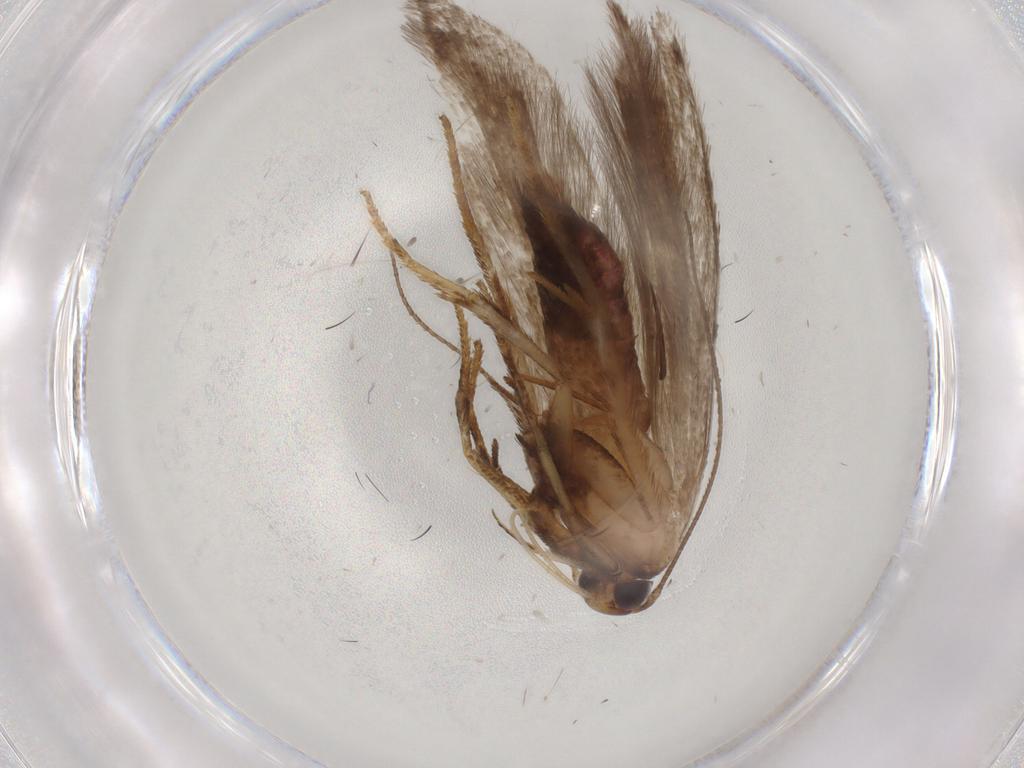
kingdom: Animalia
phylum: Arthropoda
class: Insecta
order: Lepidoptera
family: Gelechiidae
